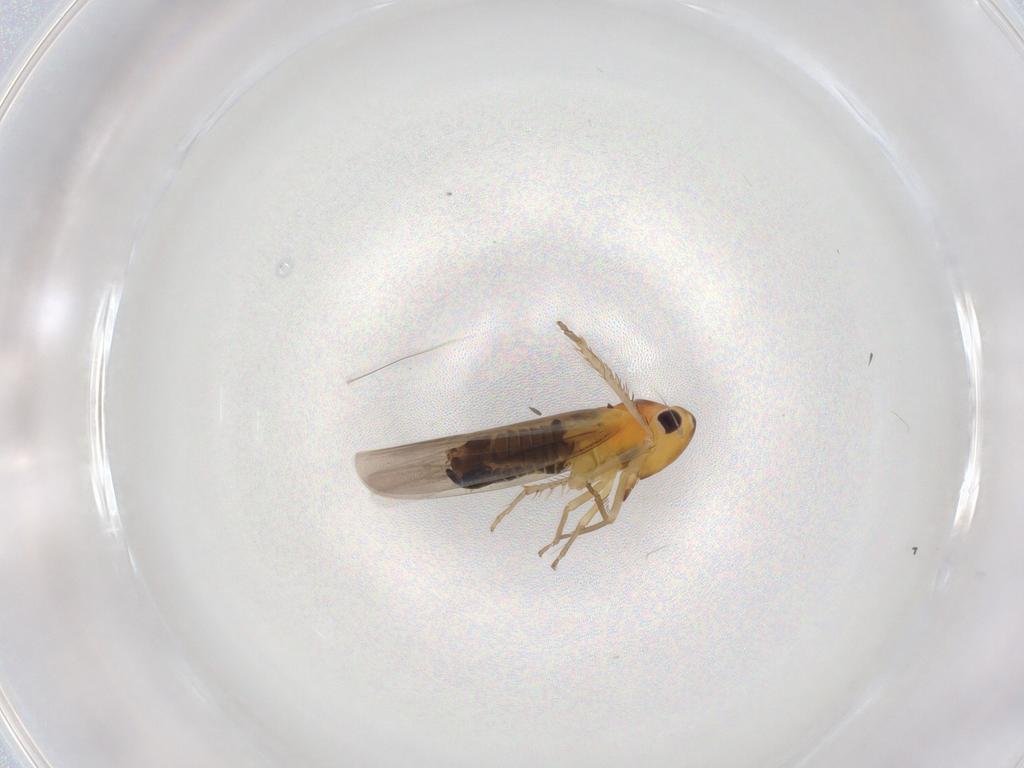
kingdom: Animalia
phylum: Arthropoda
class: Insecta
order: Hemiptera
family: Cicadellidae
